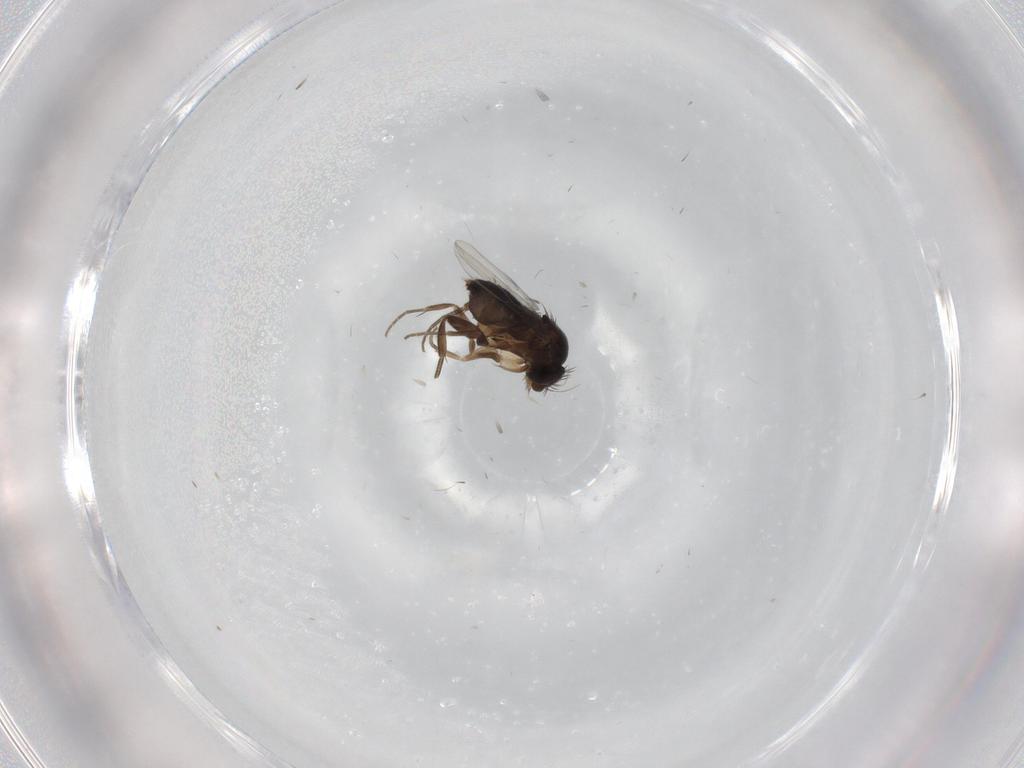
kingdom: Animalia
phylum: Arthropoda
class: Insecta
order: Diptera
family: Phoridae
